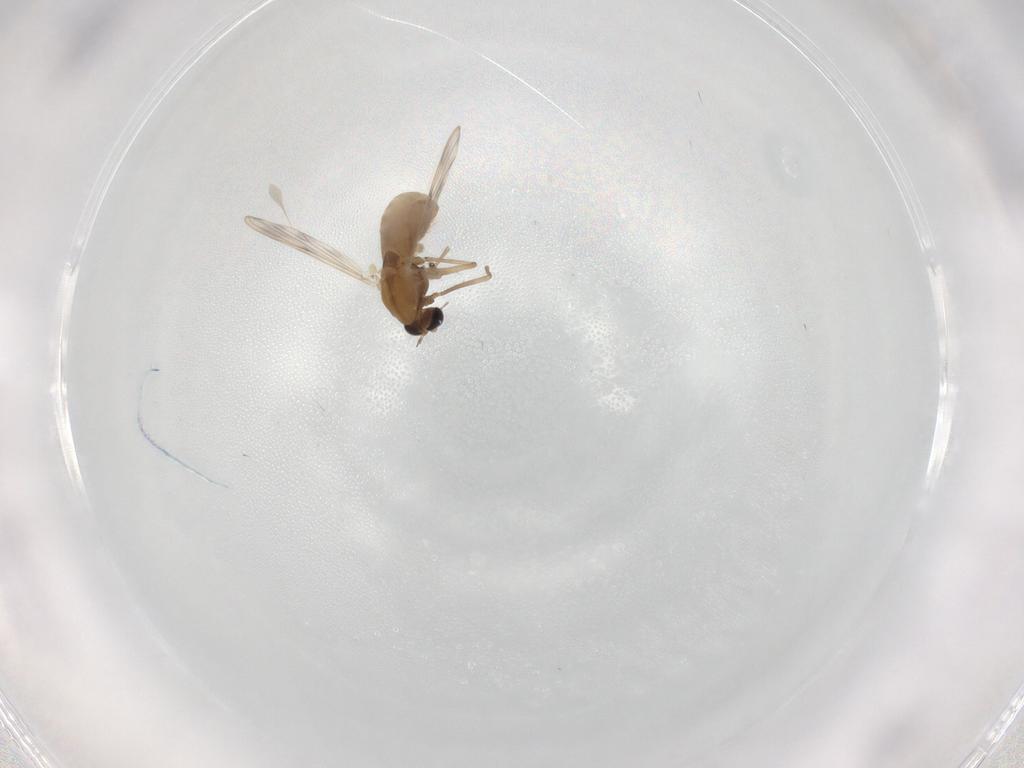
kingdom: Animalia
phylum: Arthropoda
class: Insecta
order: Diptera
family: Chironomidae
